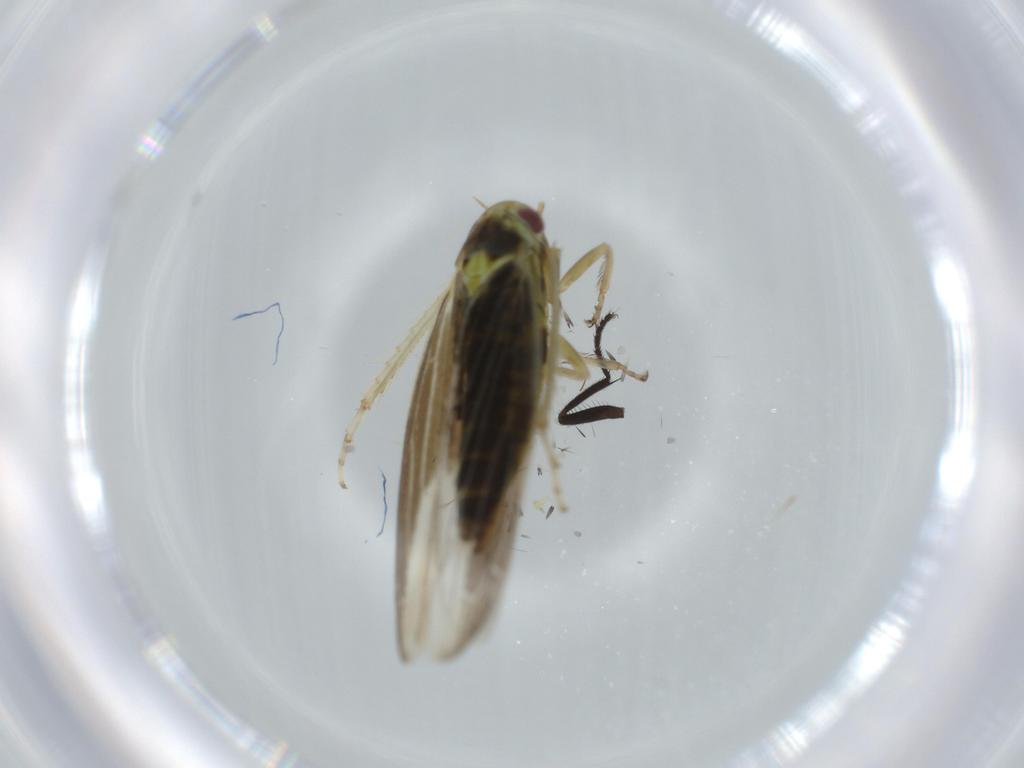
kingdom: Animalia
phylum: Arthropoda
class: Insecta
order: Hemiptera
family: Cicadellidae
